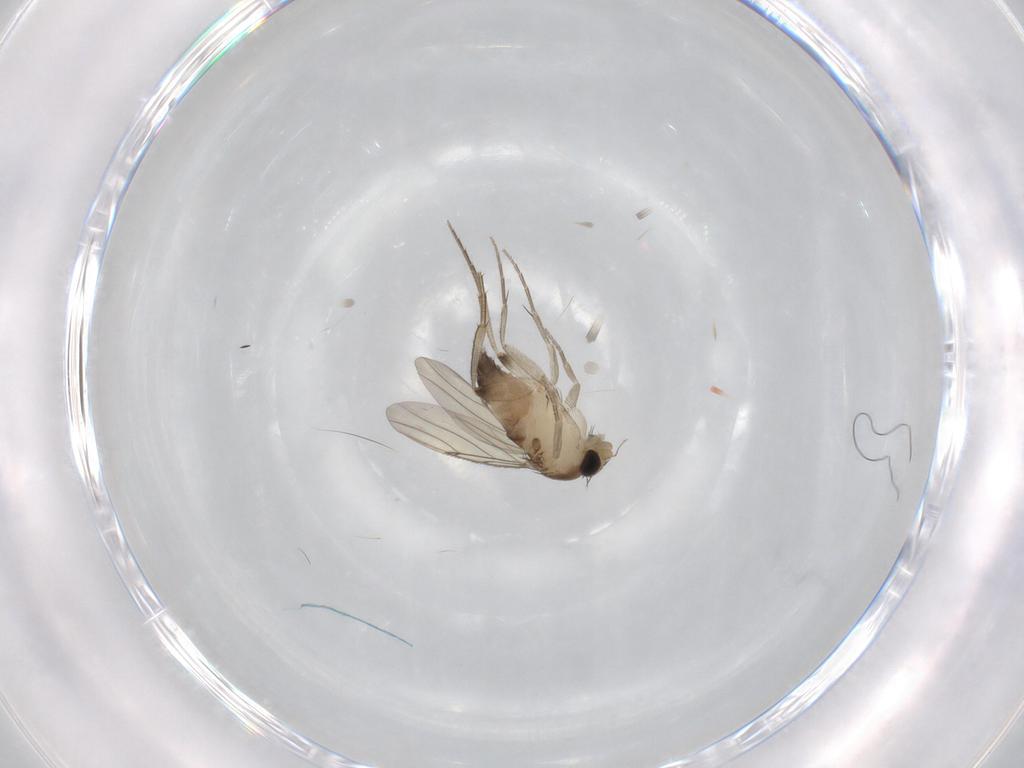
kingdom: Animalia
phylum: Arthropoda
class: Insecta
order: Diptera
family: Phoridae
